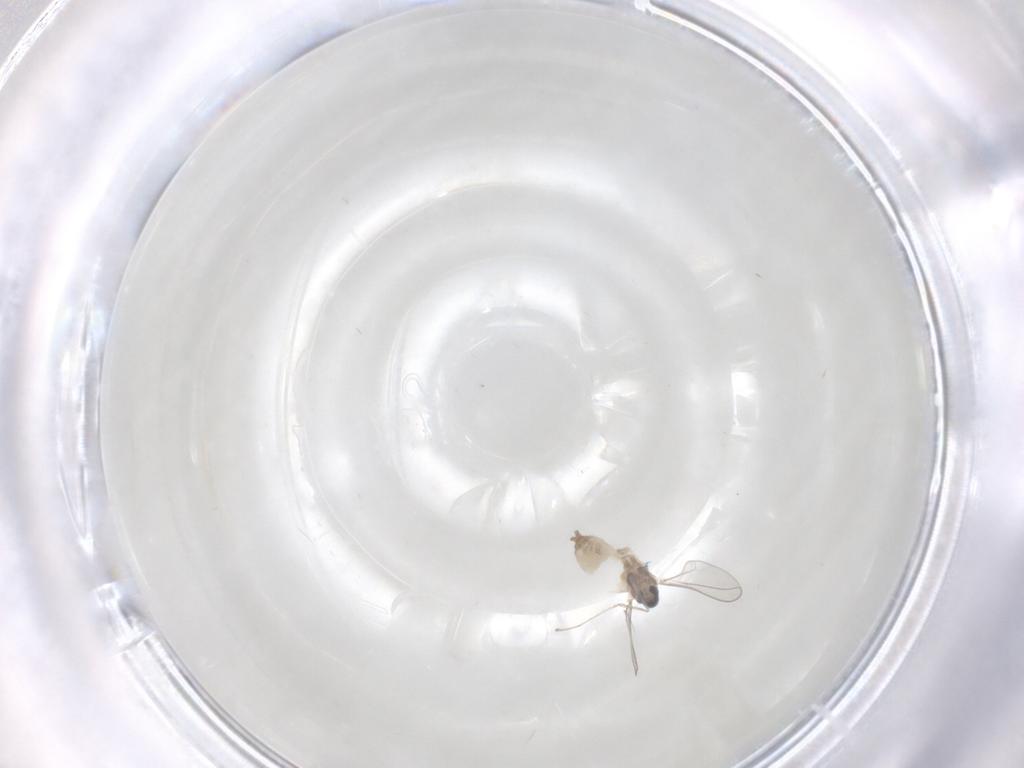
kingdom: Animalia
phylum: Arthropoda
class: Insecta
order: Diptera
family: Cecidomyiidae
